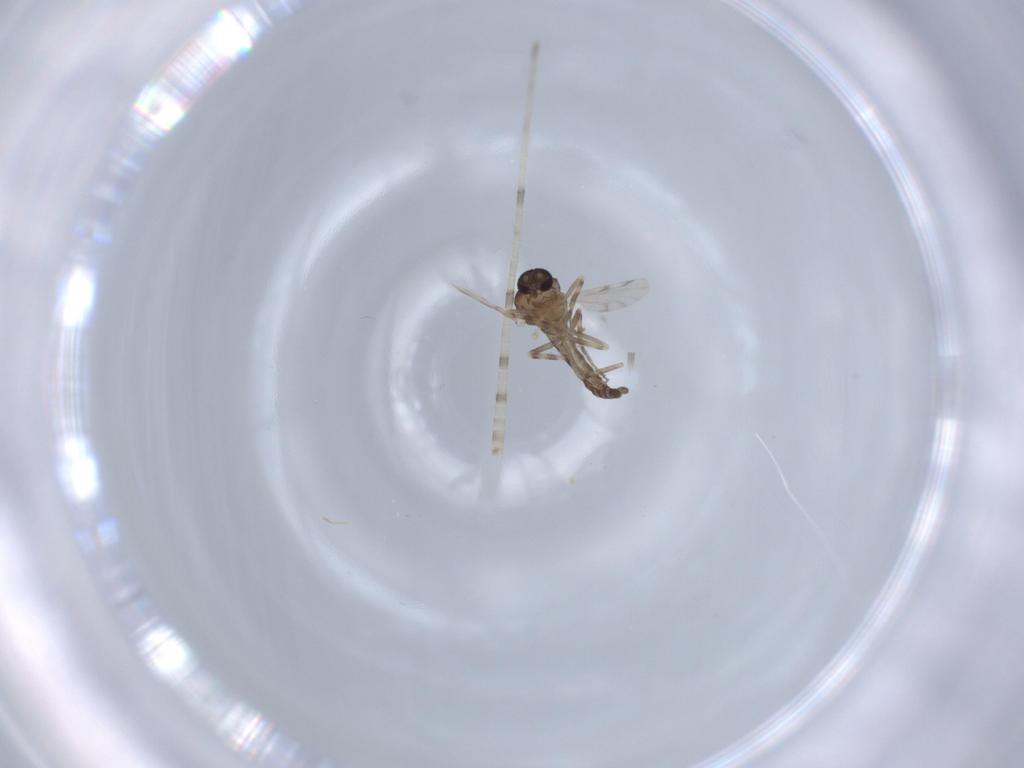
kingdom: Animalia
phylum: Arthropoda
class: Insecta
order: Diptera
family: Ceratopogonidae
